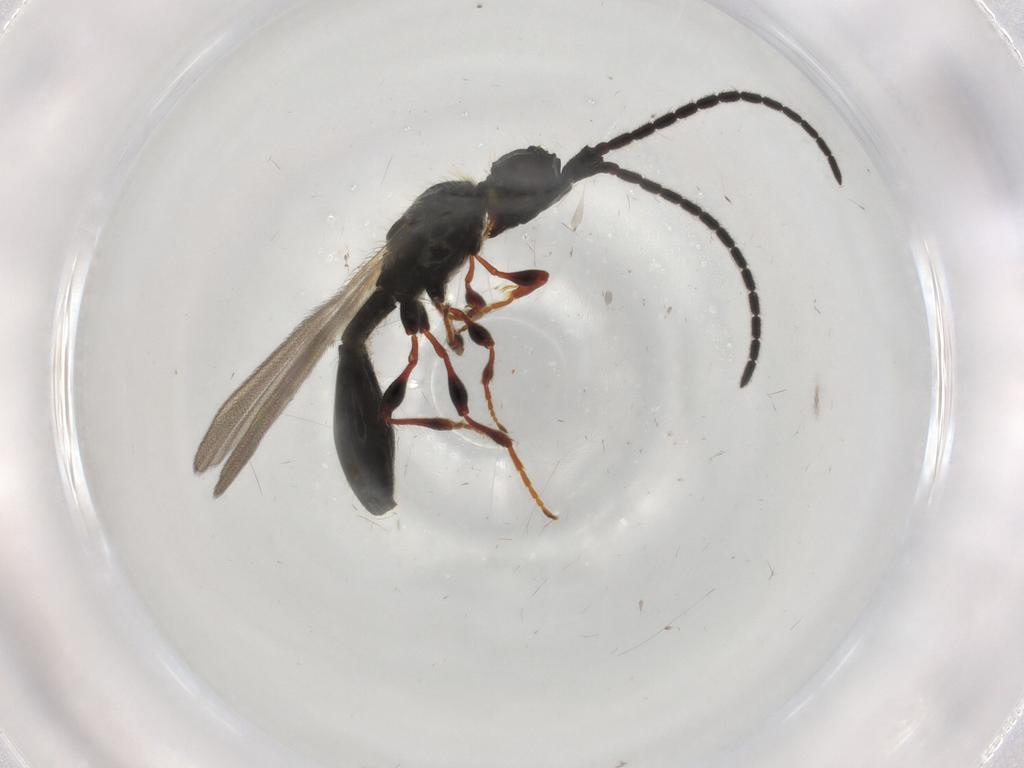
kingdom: Animalia
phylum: Arthropoda
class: Insecta
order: Hymenoptera
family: Diapriidae
